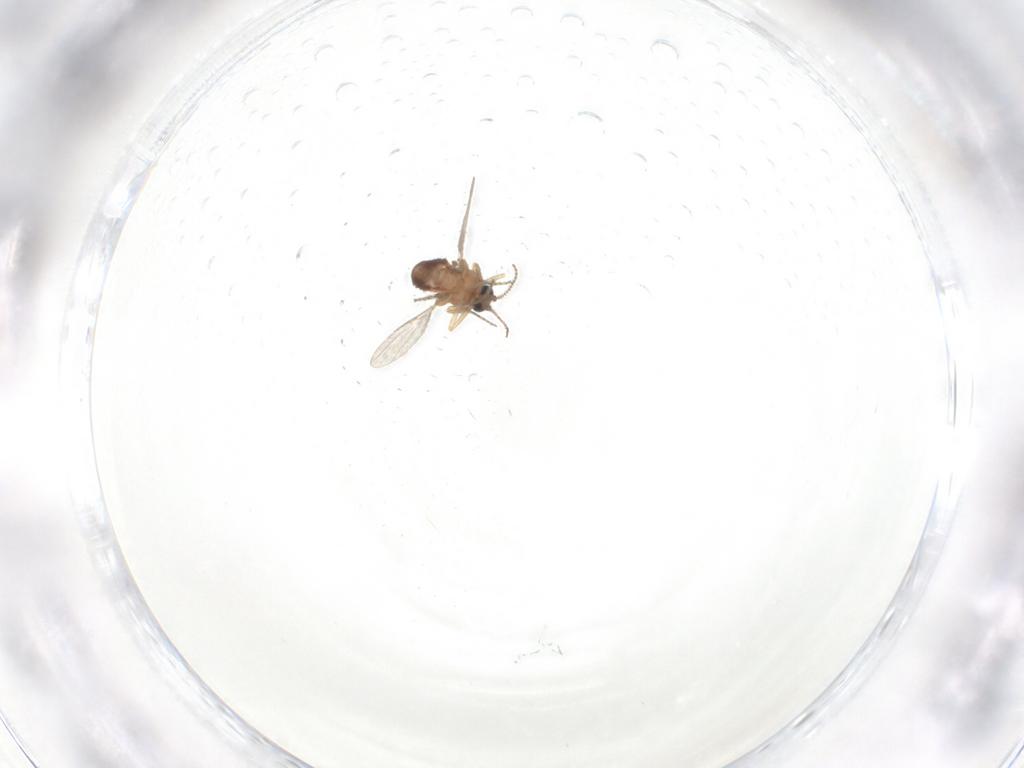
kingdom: Animalia
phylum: Arthropoda
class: Insecta
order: Diptera
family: Ceratopogonidae
